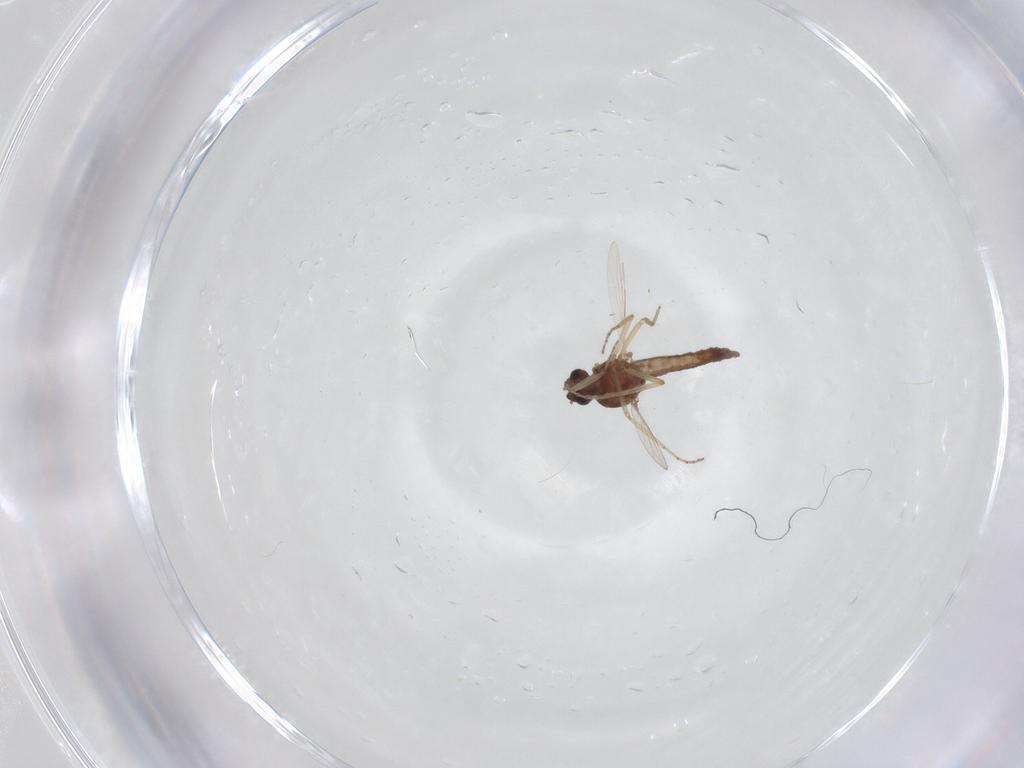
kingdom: Animalia
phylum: Arthropoda
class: Insecta
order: Diptera
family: Ceratopogonidae
